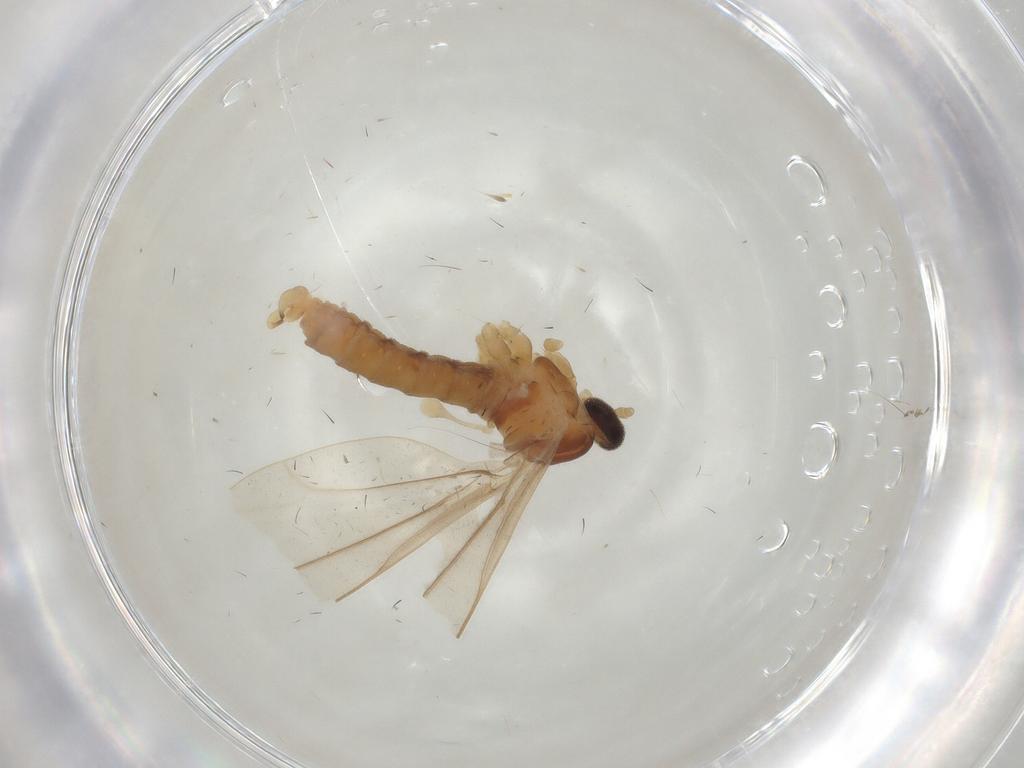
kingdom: Animalia
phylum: Arthropoda
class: Insecta
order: Diptera
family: Cecidomyiidae
